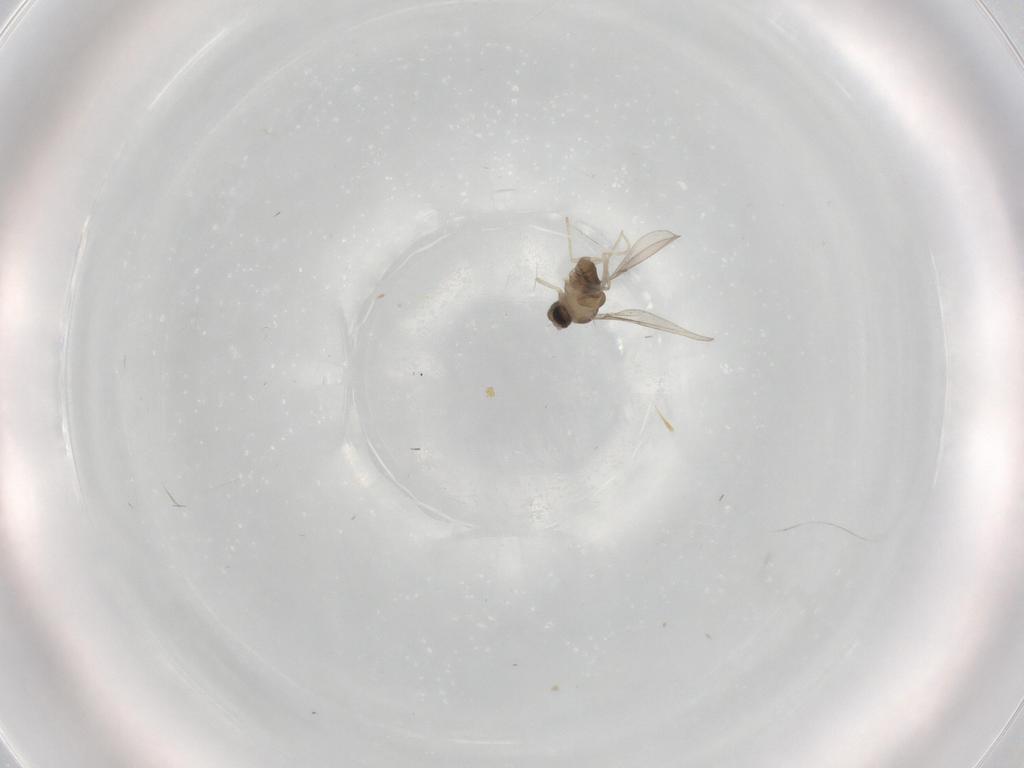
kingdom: Animalia
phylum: Arthropoda
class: Insecta
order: Diptera
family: Cecidomyiidae
